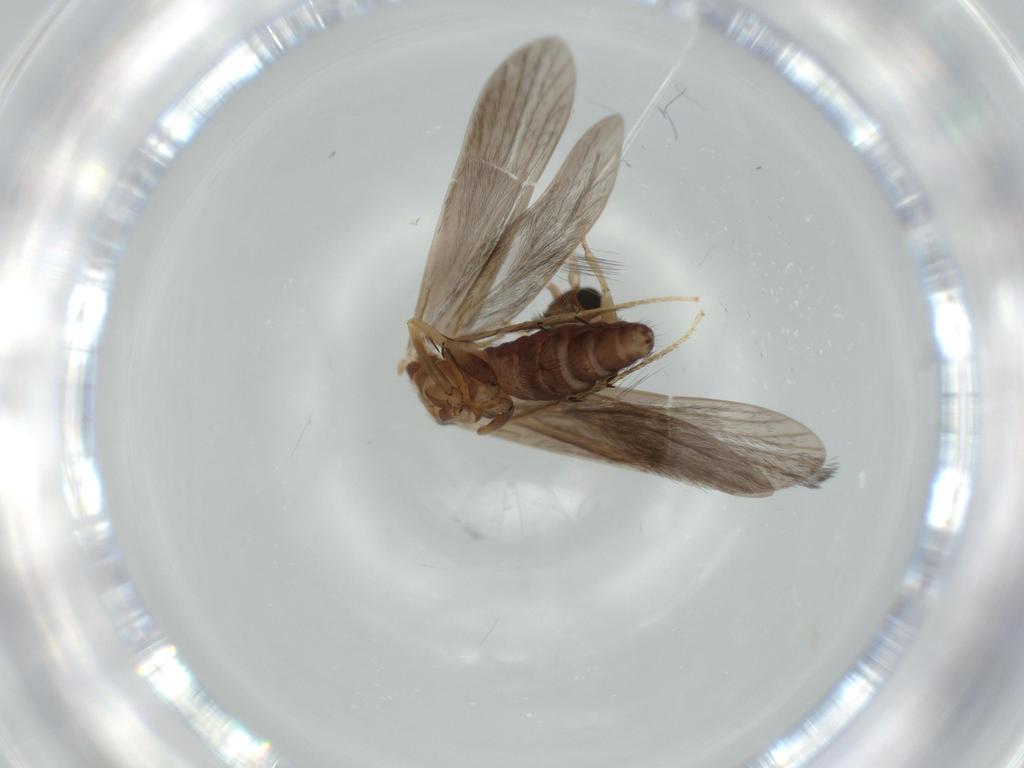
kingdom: Animalia
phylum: Arthropoda
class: Insecta
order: Trichoptera
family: Glossosomatidae
